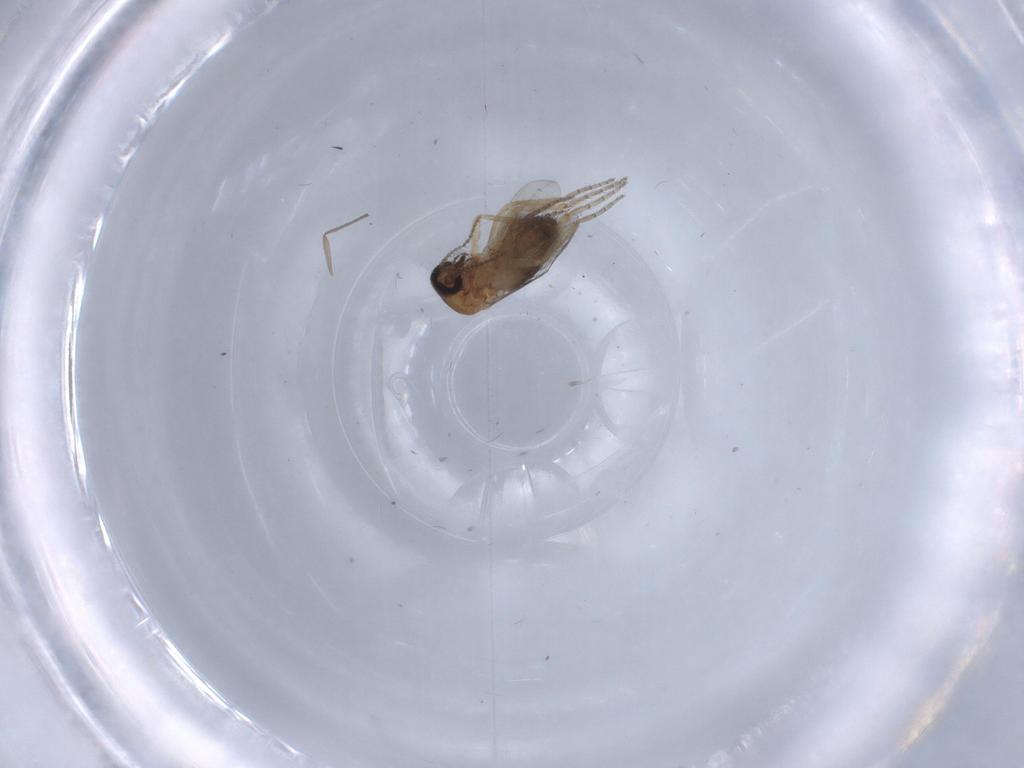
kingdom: Animalia
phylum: Arthropoda
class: Insecta
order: Diptera
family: Ceratopogonidae
